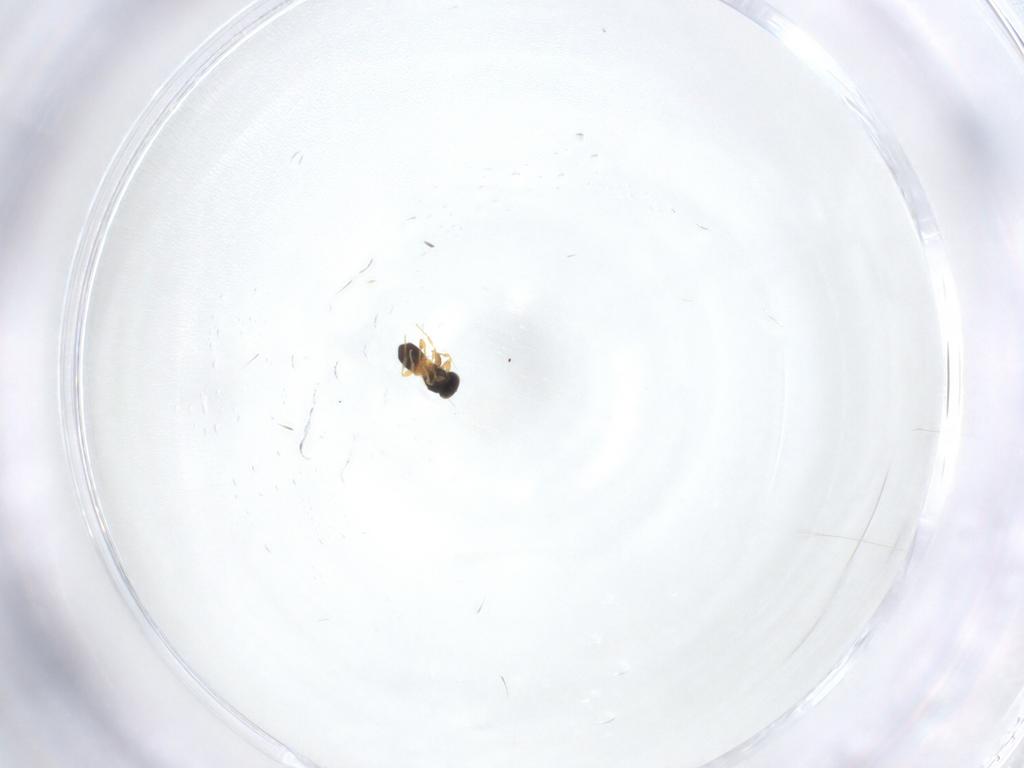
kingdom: Animalia
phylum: Arthropoda
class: Insecta
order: Hymenoptera
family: Platygastridae
